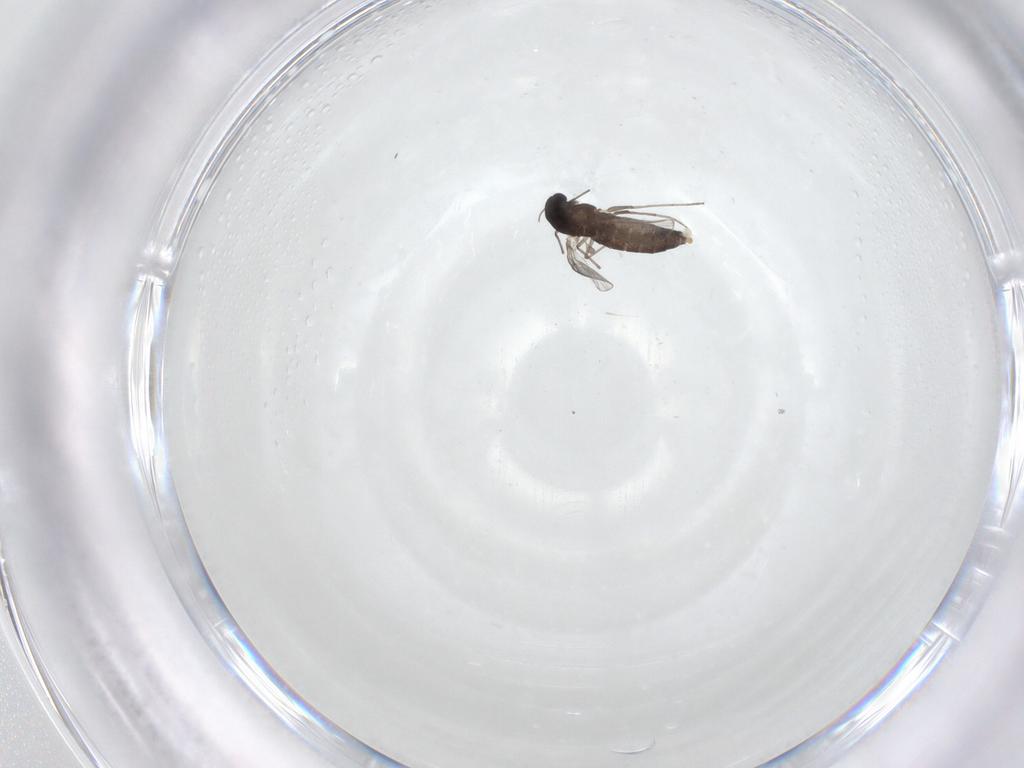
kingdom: Animalia
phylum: Arthropoda
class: Insecta
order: Diptera
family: Chironomidae
